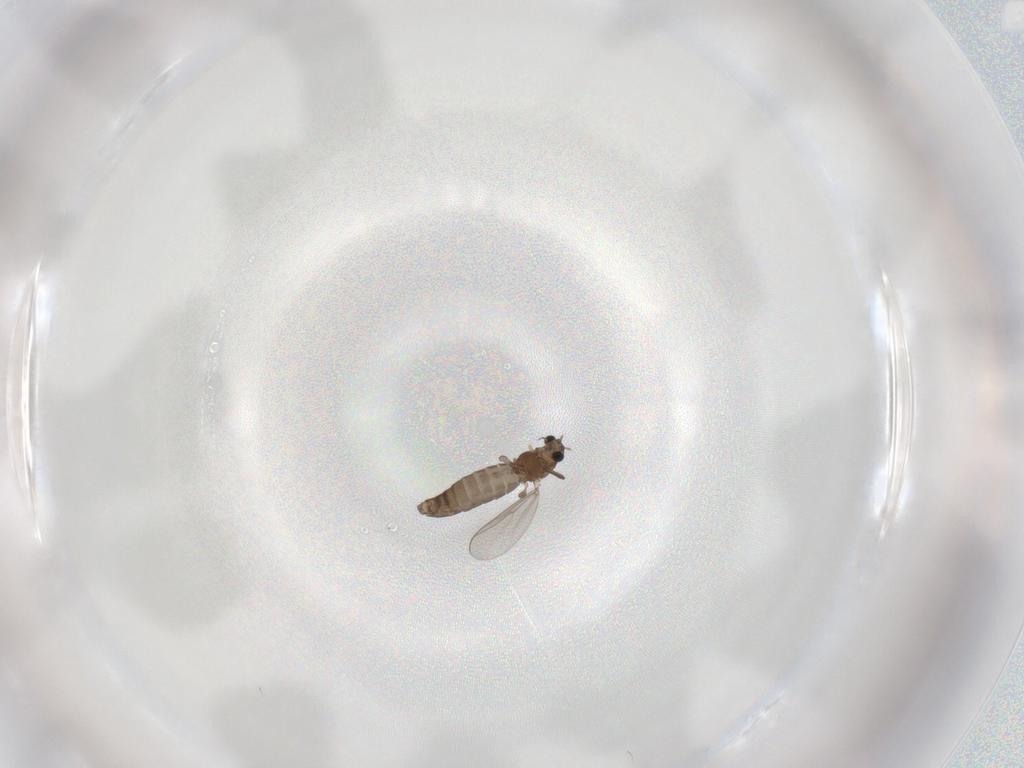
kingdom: Animalia
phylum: Arthropoda
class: Insecta
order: Diptera
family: Chironomidae
